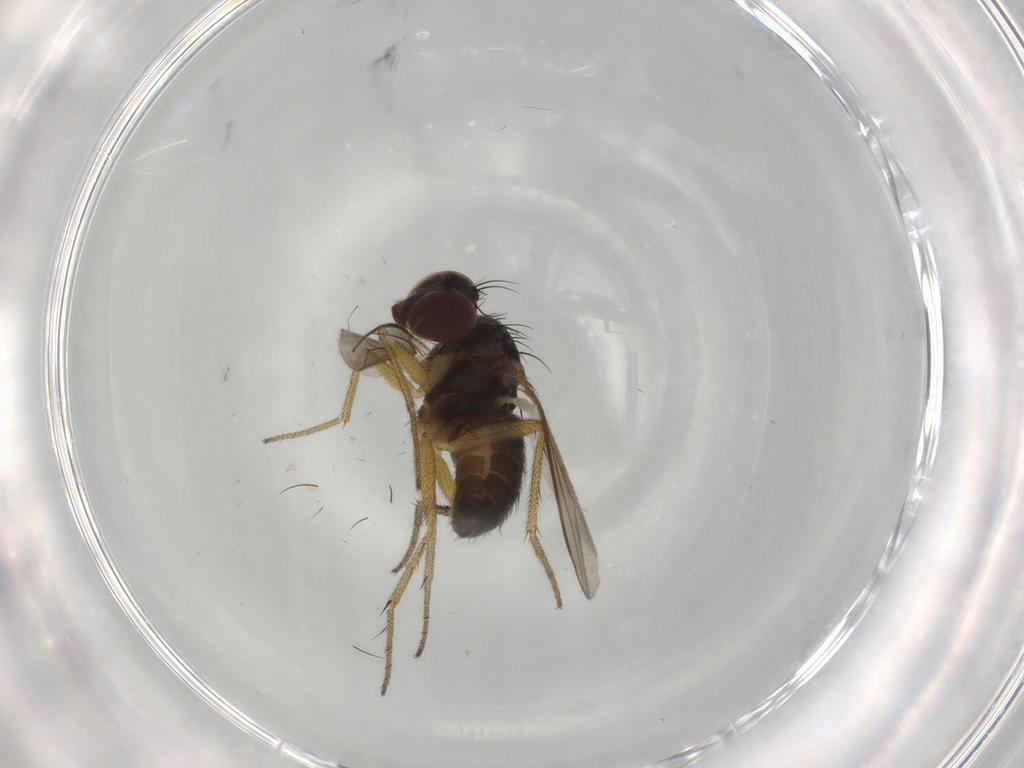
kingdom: Animalia
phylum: Arthropoda
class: Insecta
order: Diptera
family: Dolichopodidae
